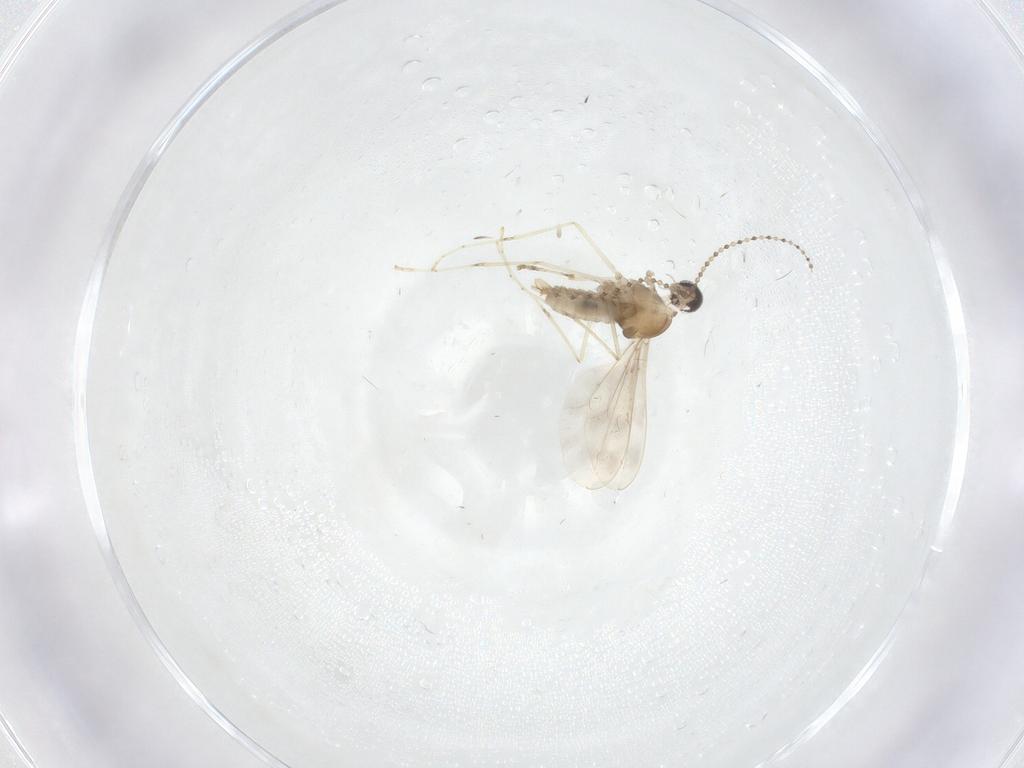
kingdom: Animalia
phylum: Arthropoda
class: Insecta
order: Diptera
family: Cecidomyiidae
